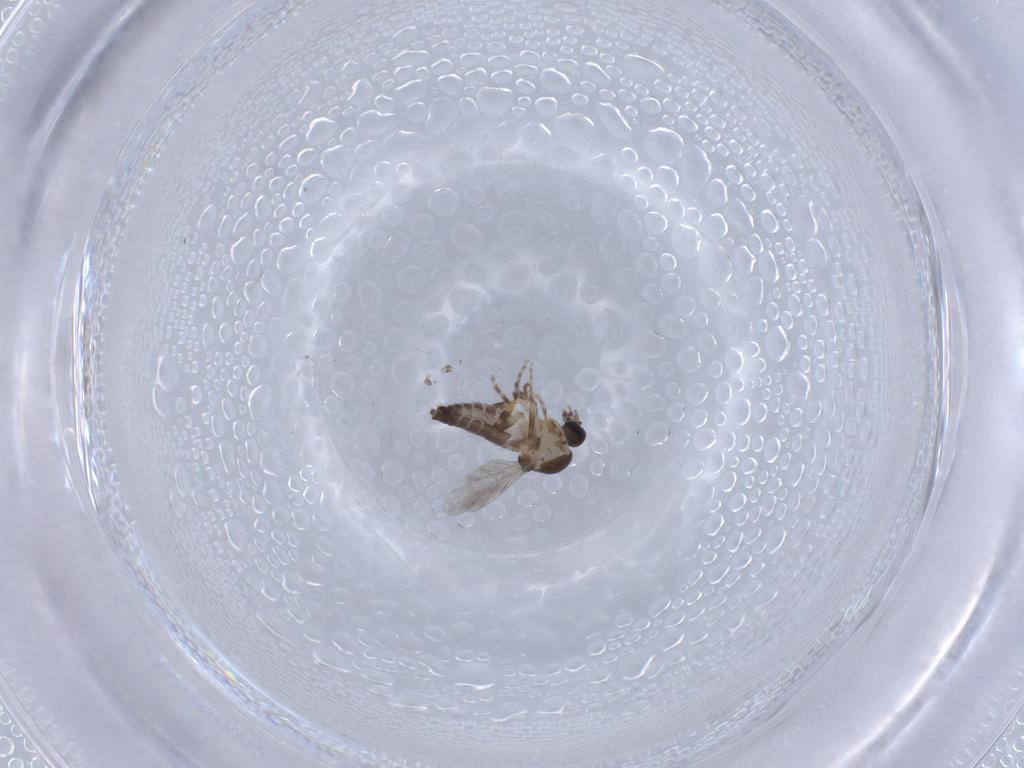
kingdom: Animalia
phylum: Arthropoda
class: Insecta
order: Diptera
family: Ceratopogonidae
